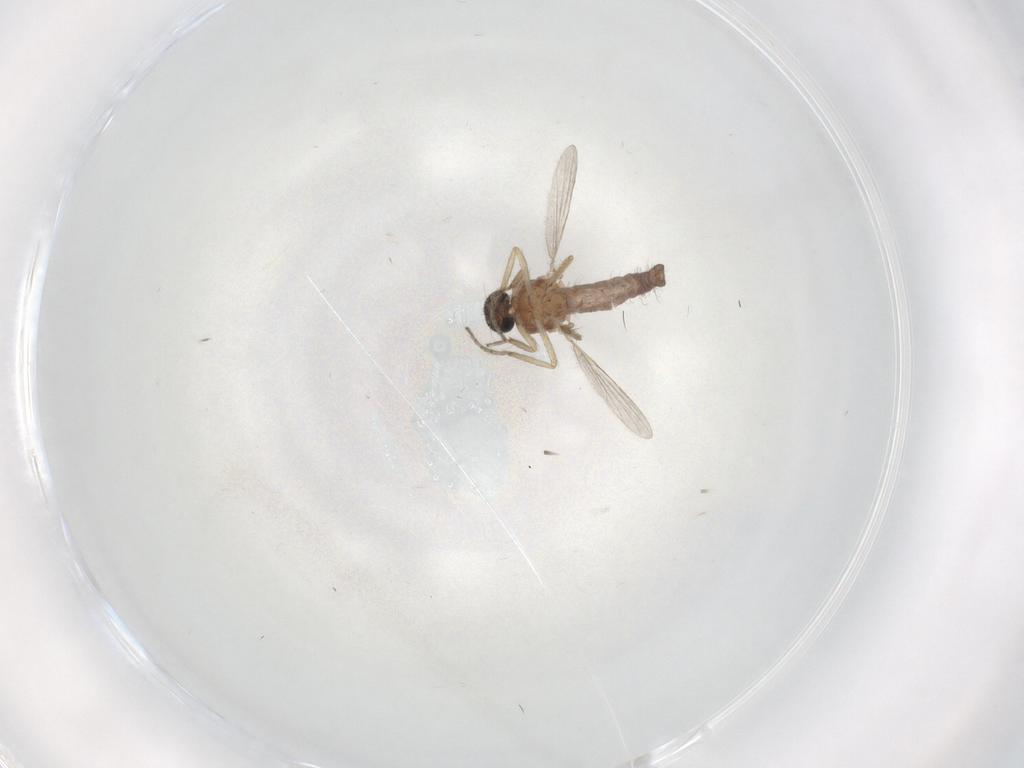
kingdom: Animalia
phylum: Arthropoda
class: Insecta
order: Diptera
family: Ceratopogonidae
